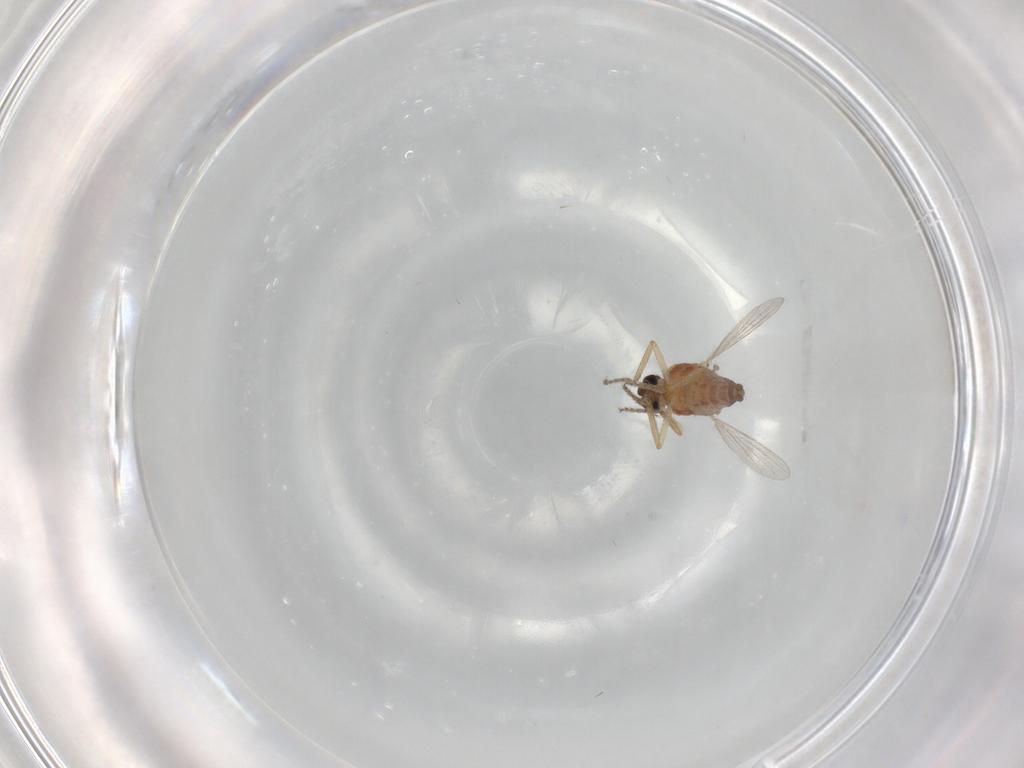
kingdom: Animalia
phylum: Arthropoda
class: Insecta
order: Diptera
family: Ceratopogonidae
